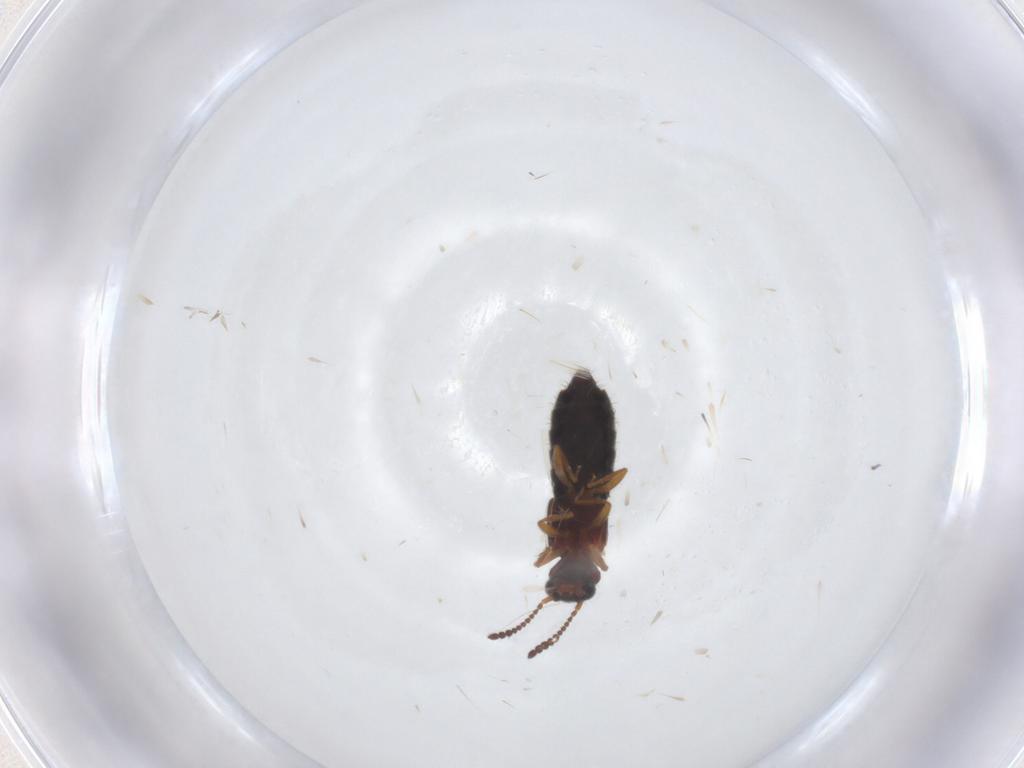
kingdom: Animalia
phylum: Arthropoda
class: Insecta
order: Coleoptera
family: Staphylinidae
